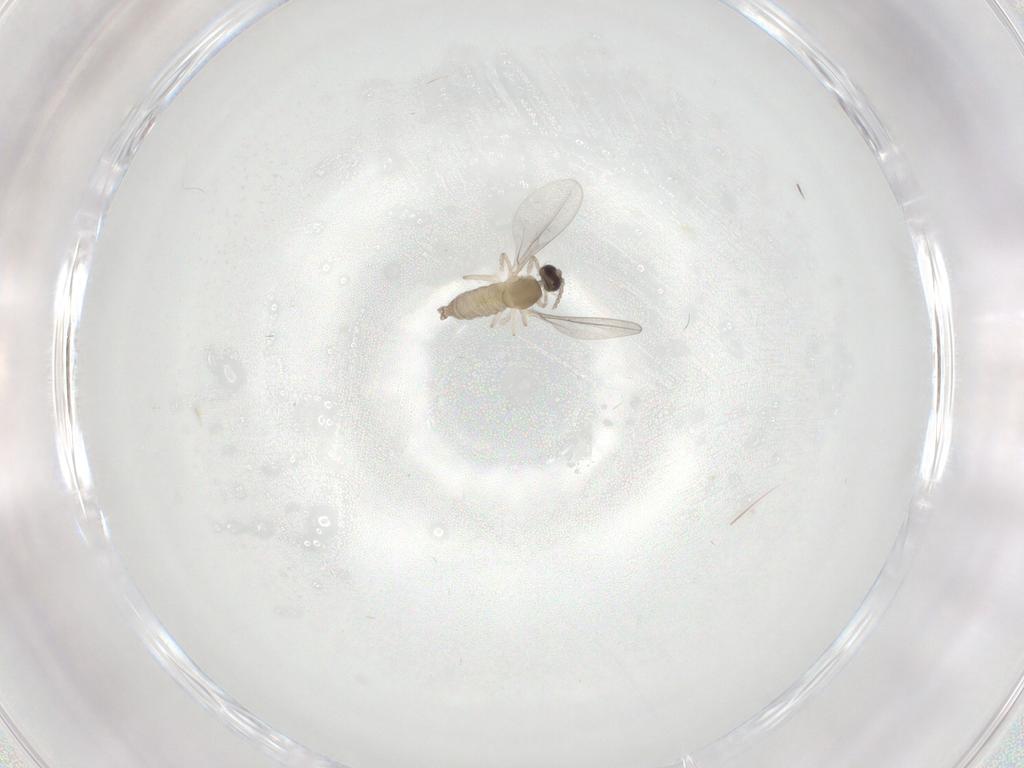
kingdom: Animalia
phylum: Arthropoda
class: Insecta
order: Diptera
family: Cecidomyiidae
